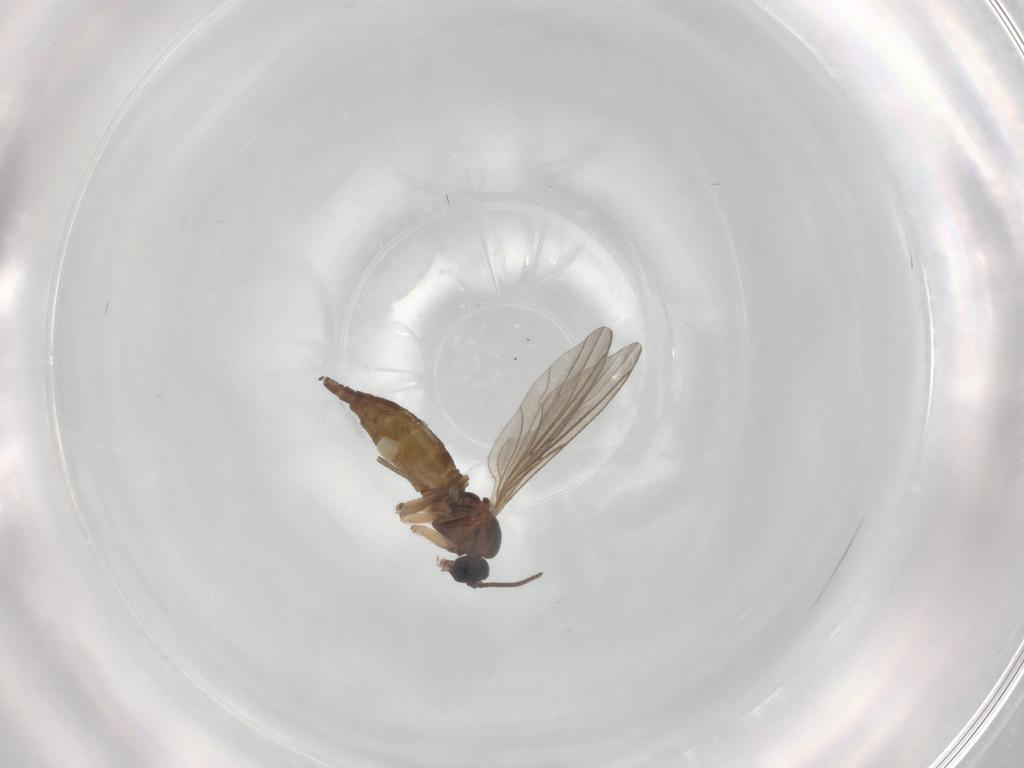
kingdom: Animalia
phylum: Arthropoda
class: Insecta
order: Diptera
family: Sciaridae
